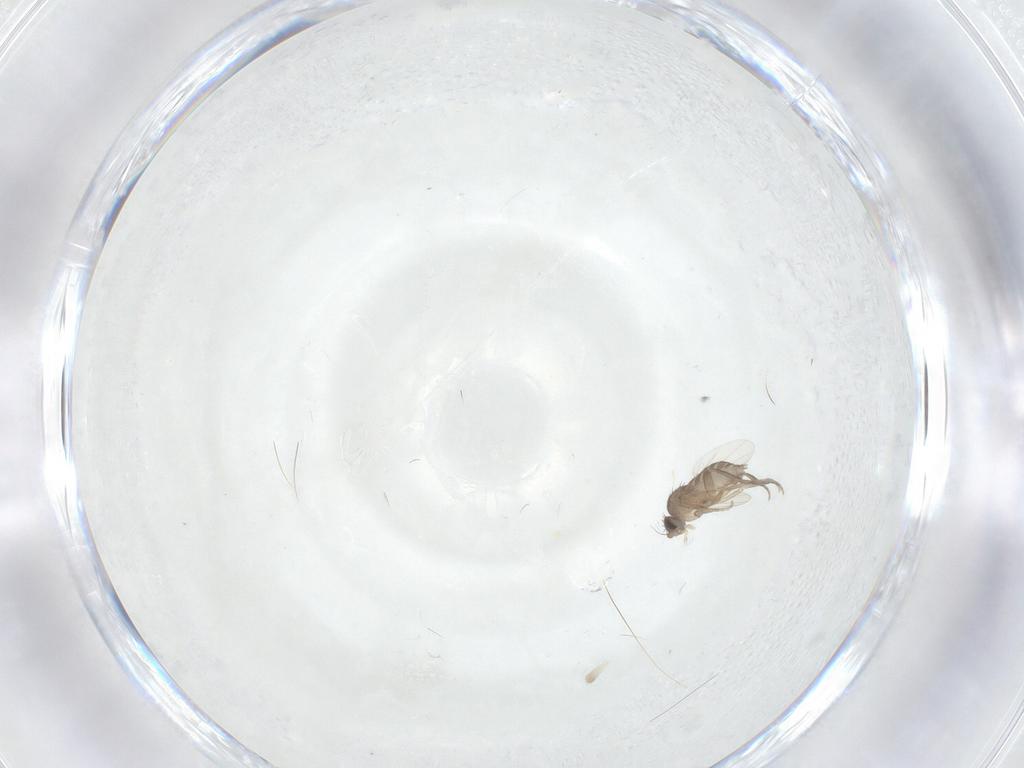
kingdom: Animalia
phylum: Arthropoda
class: Insecta
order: Diptera
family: Phoridae
